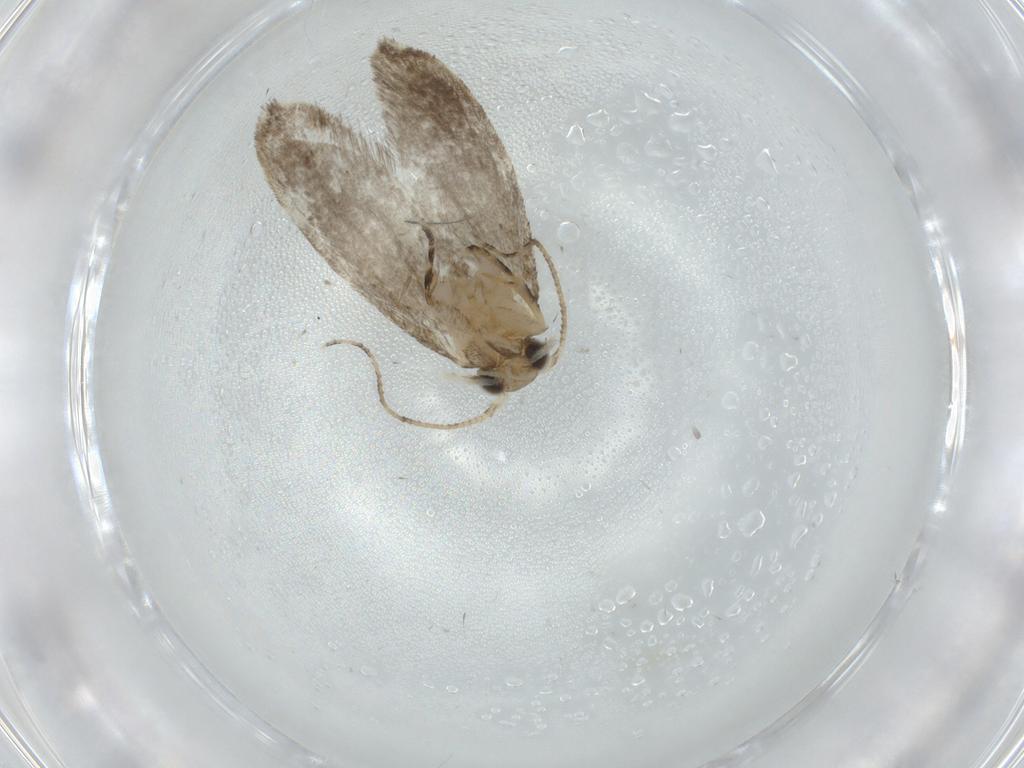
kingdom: Animalia
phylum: Arthropoda
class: Insecta
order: Lepidoptera
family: Tineidae
